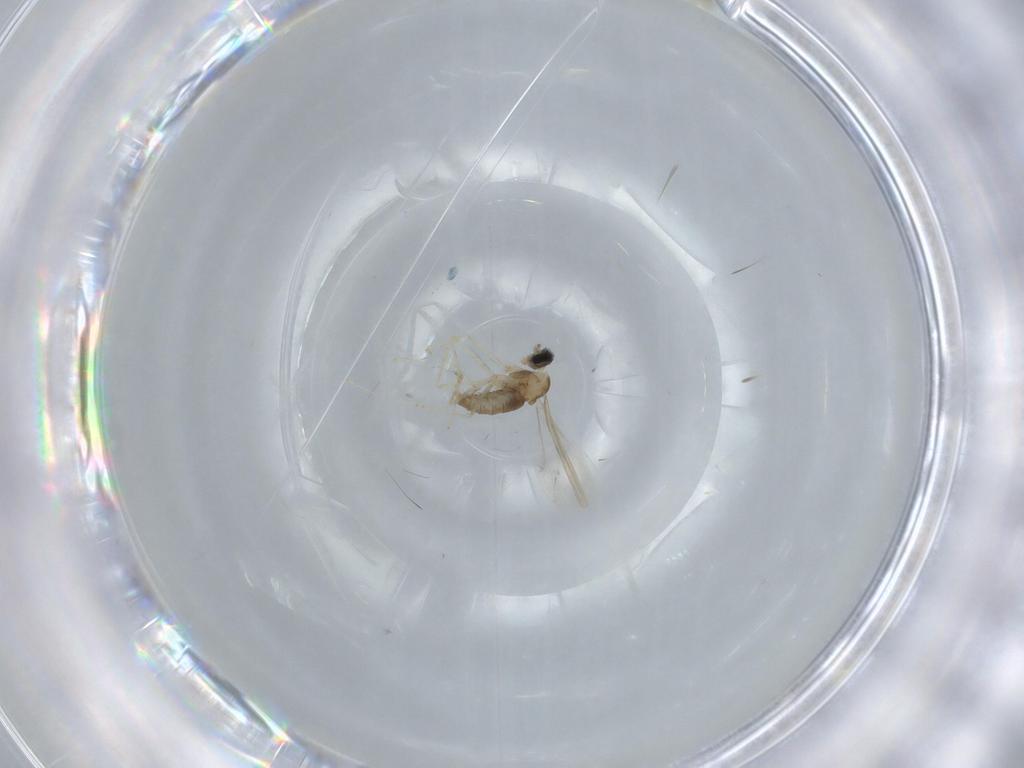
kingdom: Animalia
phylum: Arthropoda
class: Insecta
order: Diptera
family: Cecidomyiidae
